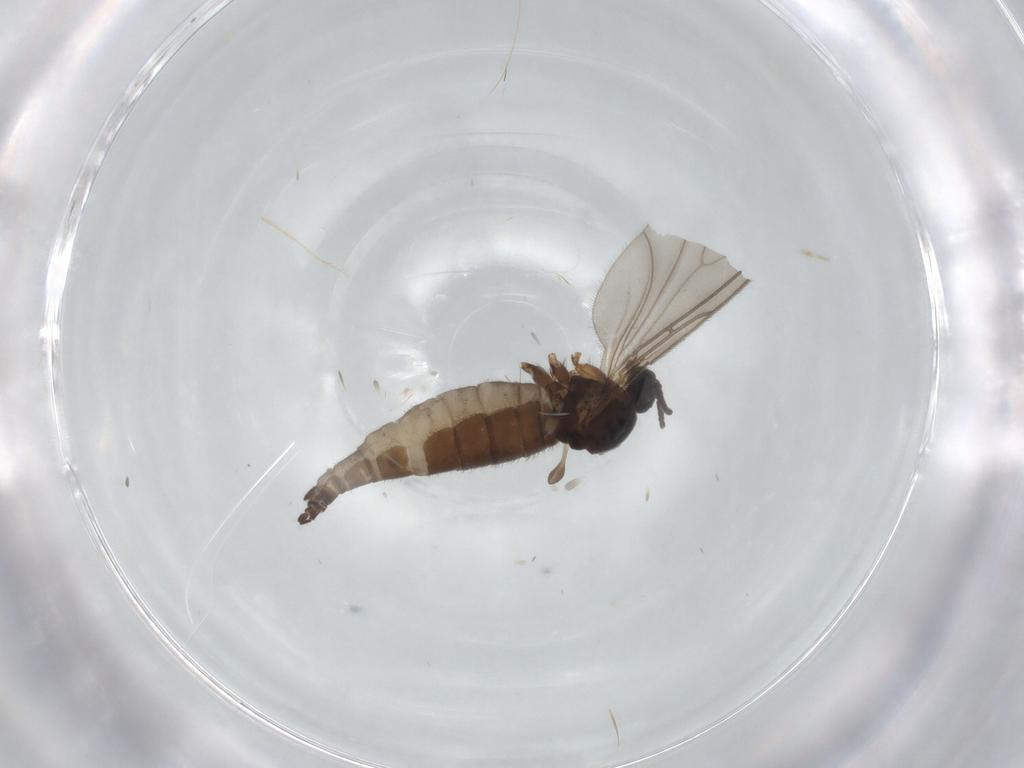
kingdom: Animalia
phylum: Arthropoda
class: Insecta
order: Diptera
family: Sciaridae
